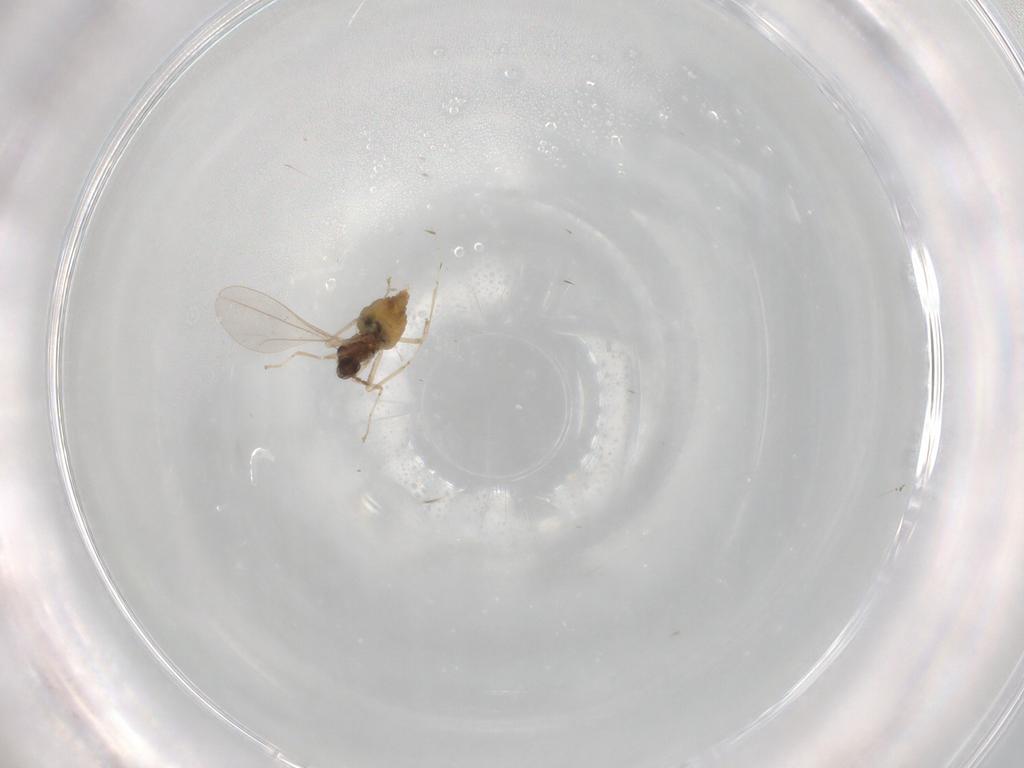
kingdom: Animalia
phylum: Arthropoda
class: Insecta
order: Diptera
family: Cecidomyiidae
